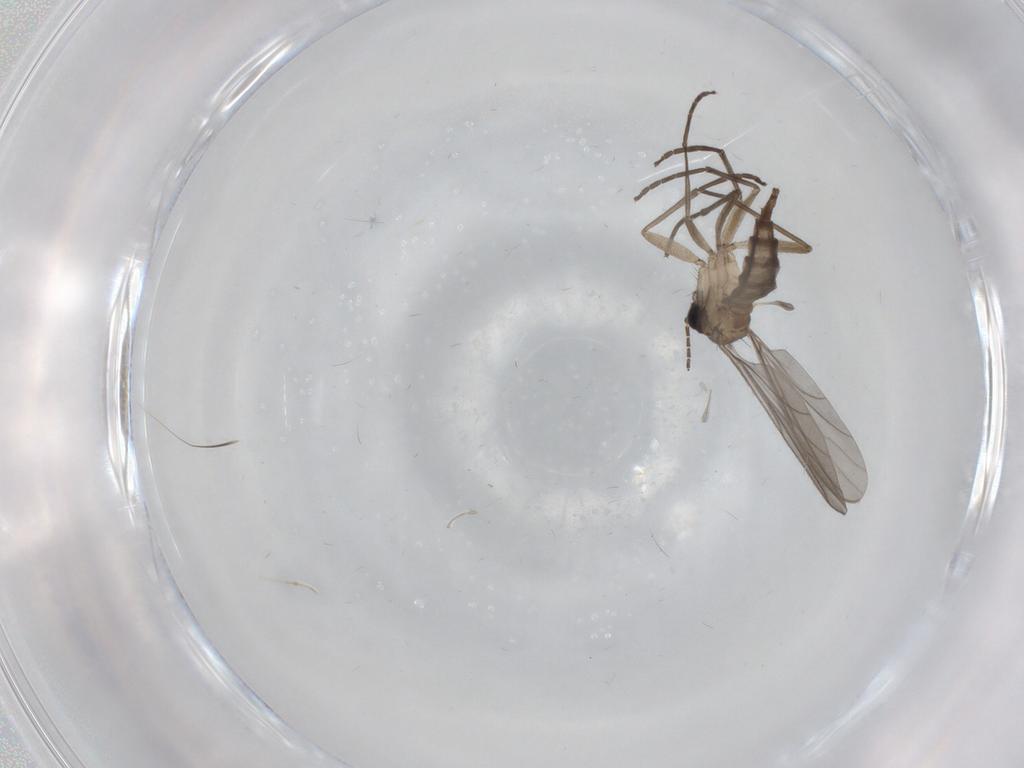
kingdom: Animalia
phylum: Arthropoda
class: Insecta
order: Diptera
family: Sciaridae
